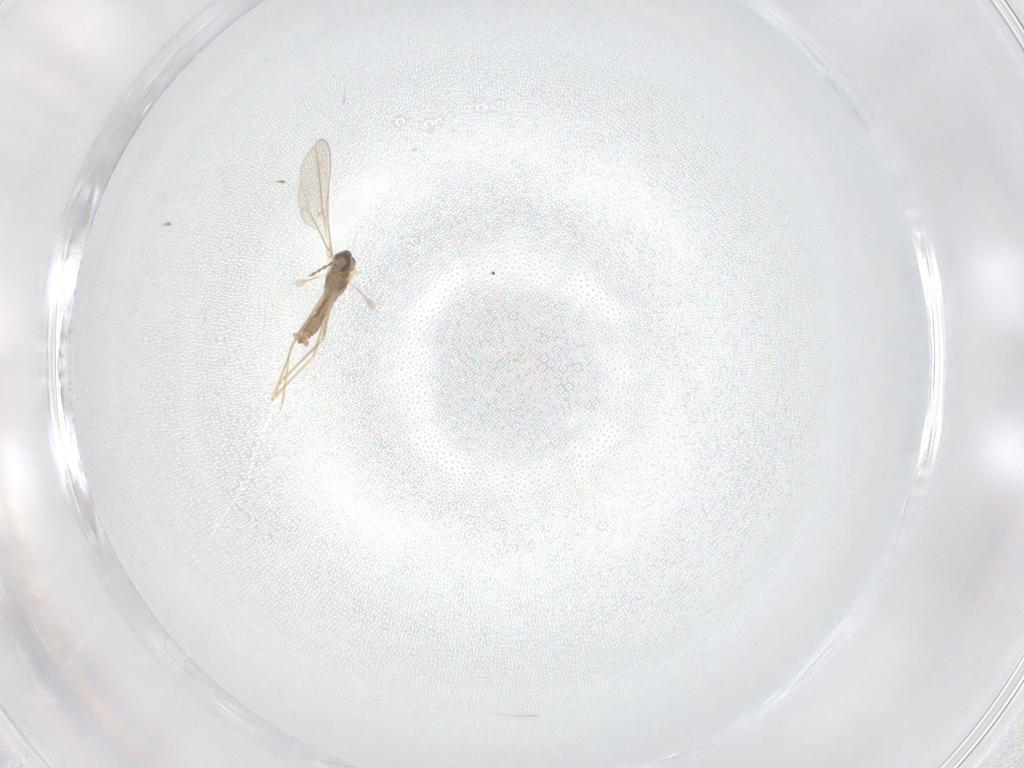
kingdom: Animalia
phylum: Arthropoda
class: Insecta
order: Diptera
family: Cecidomyiidae
